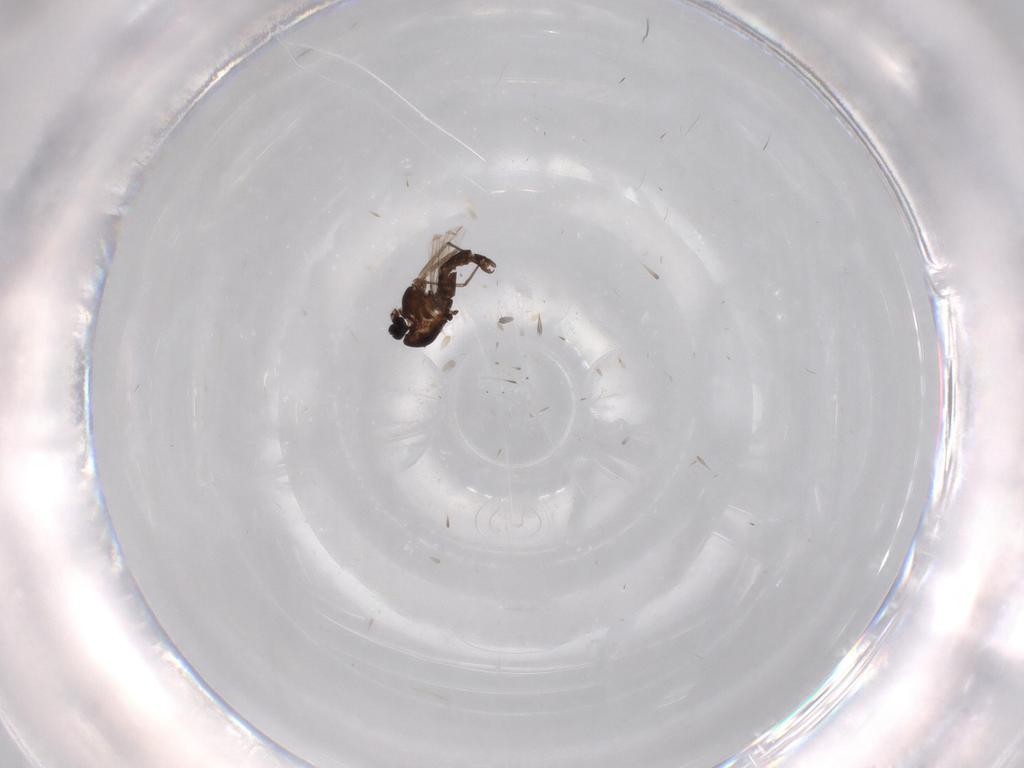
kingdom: Animalia
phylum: Arthropoda
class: Insecta
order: Diptera
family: Chironomidae
